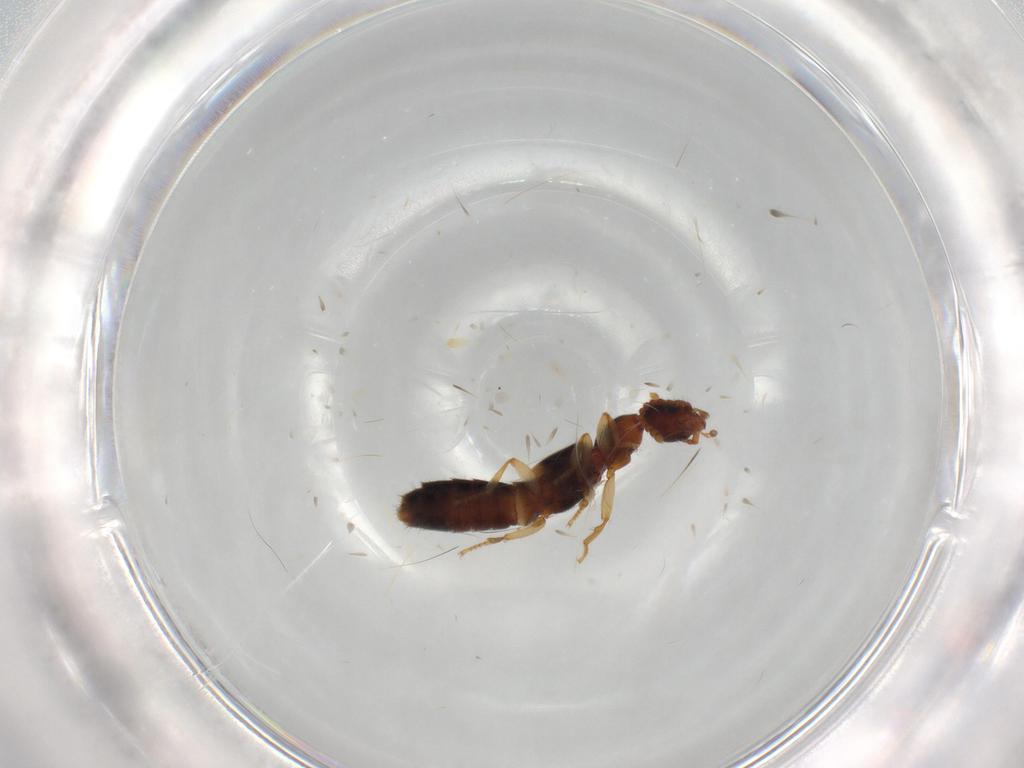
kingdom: Animalia
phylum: Arthropoda
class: Insecta
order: Coleoptera
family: Staphylinidae
